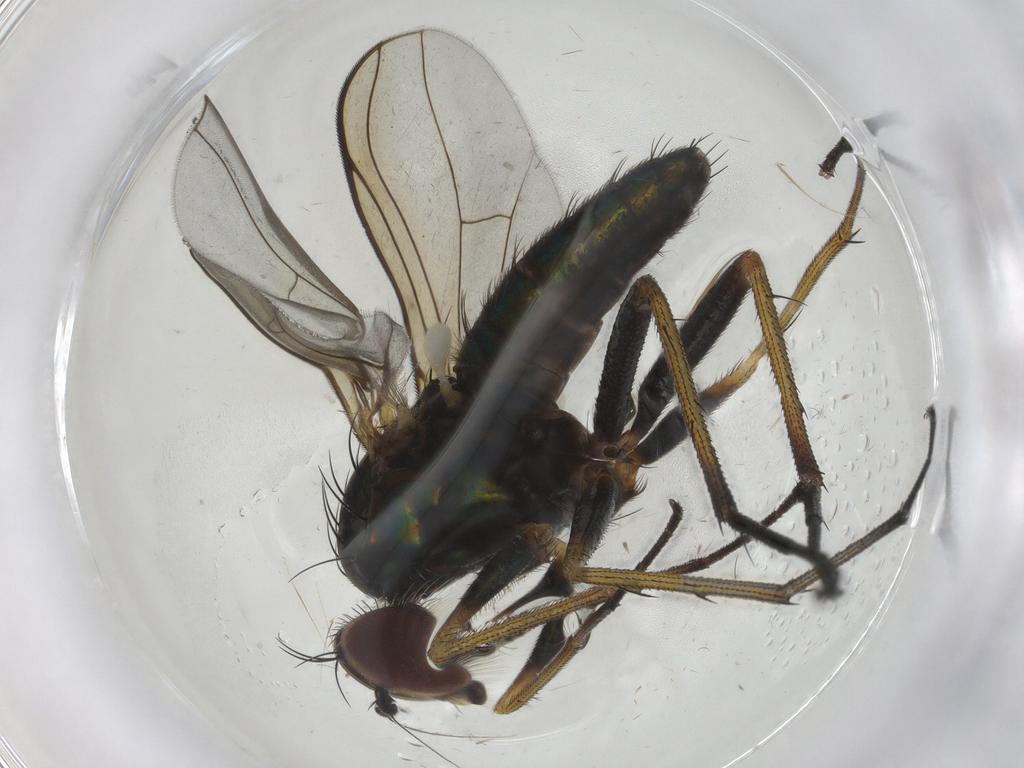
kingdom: Animalia
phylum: Arthropoda
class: Insecta
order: Diptera
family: Dolichopodidae
